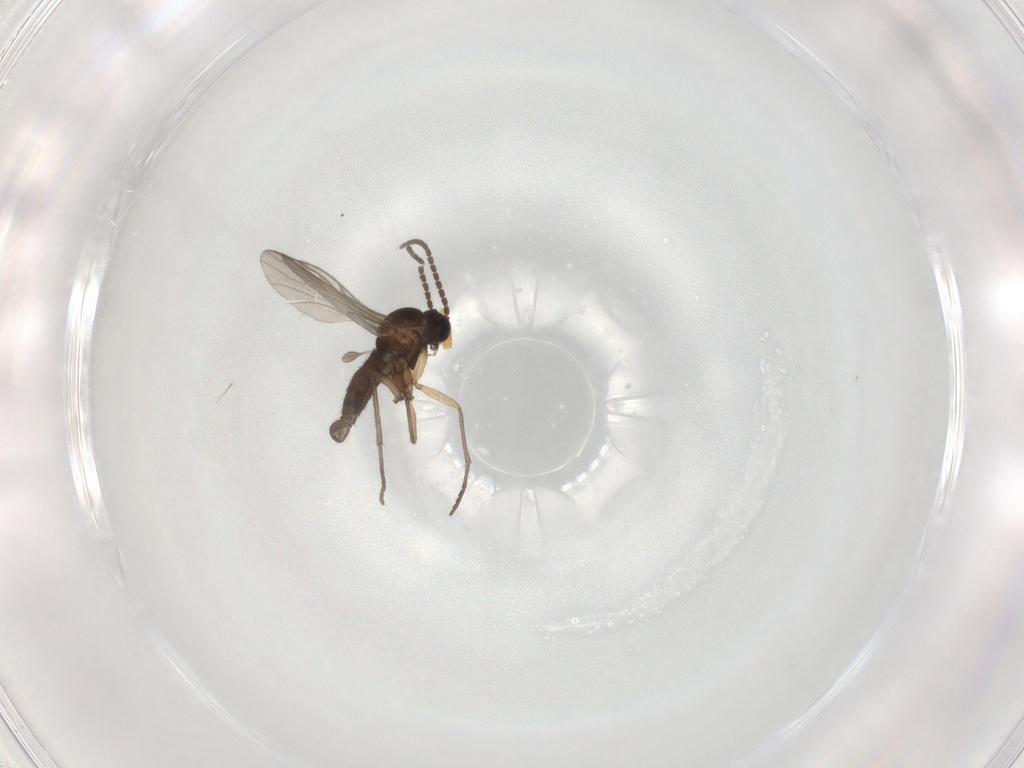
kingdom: Animalia
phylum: Arthropoda
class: Insecta
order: Diptera
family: Sciaridae
